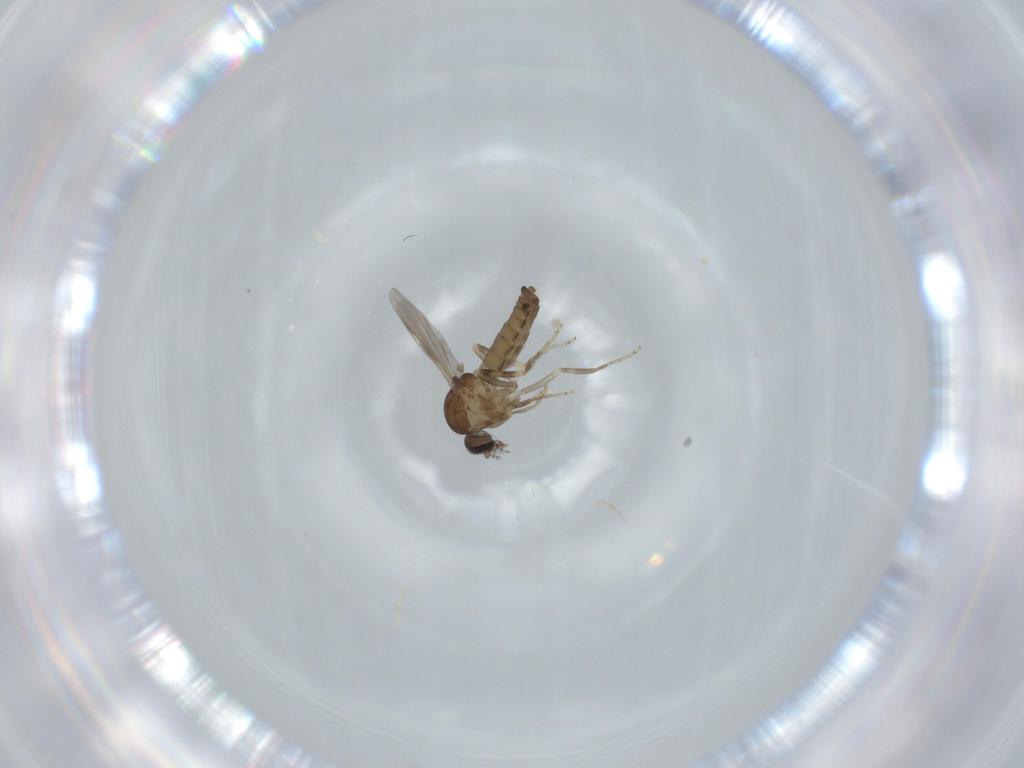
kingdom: Animalia
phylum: Arthropoda
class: Insecta
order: Diptera
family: Ceratopogonidae
